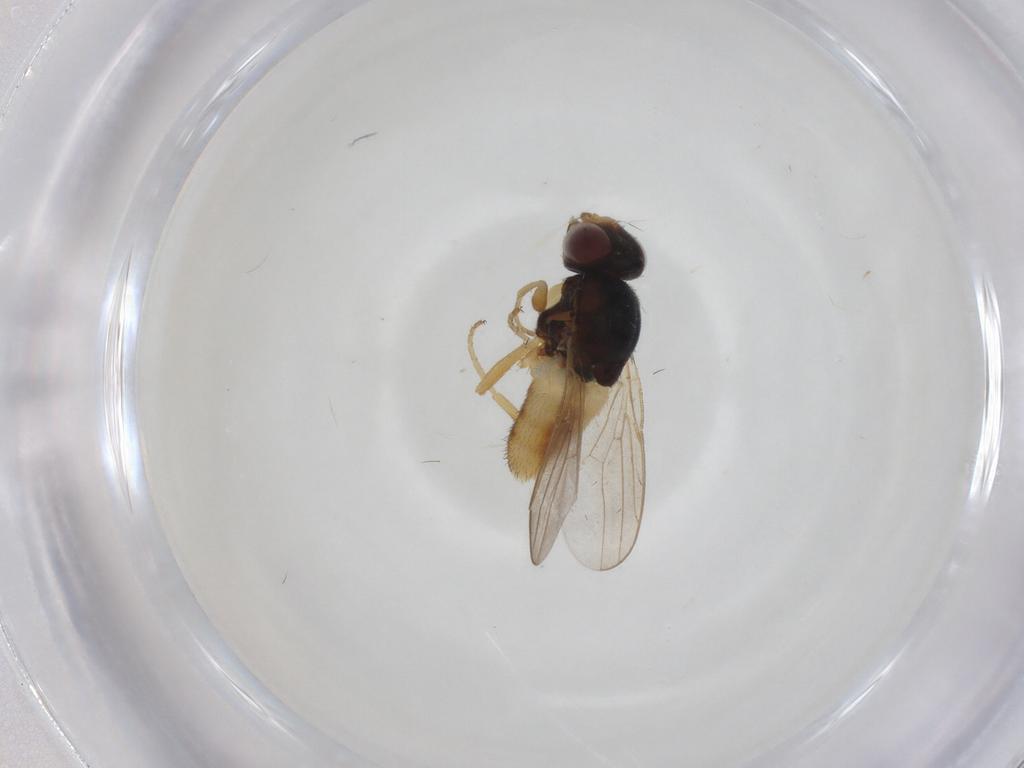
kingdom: Animalia
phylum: Arthropoda
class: Insecta
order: Diptera
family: Chloropidae
